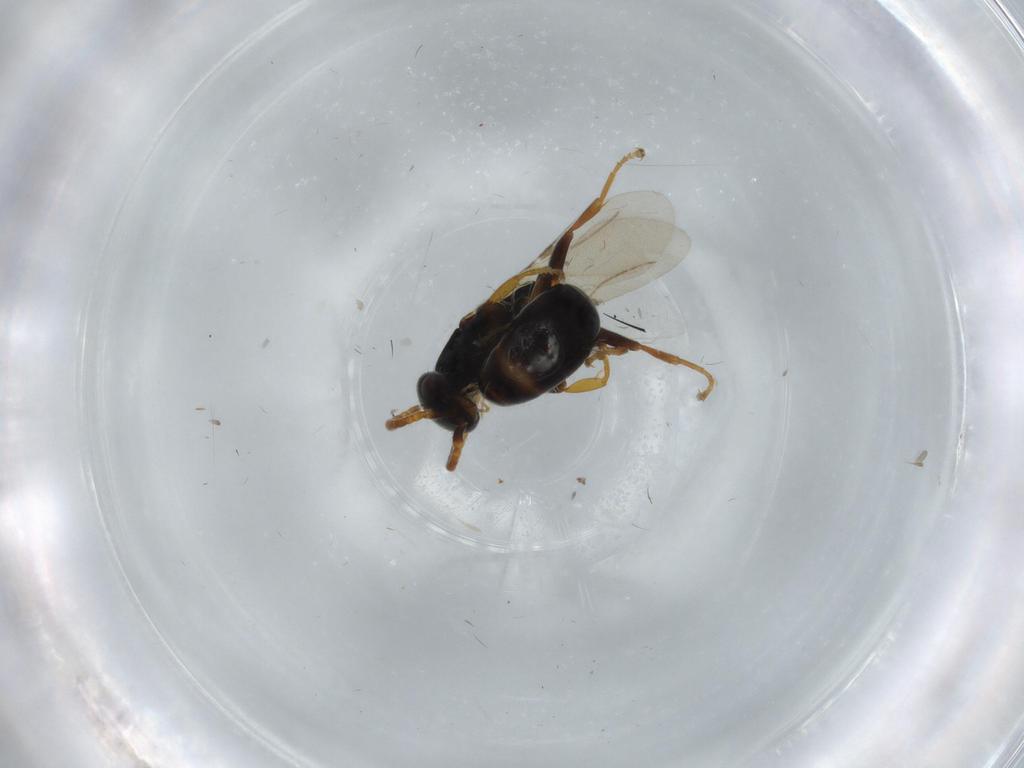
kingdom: Animalia
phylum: Arthropoda
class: Insecta
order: Hymenoptera
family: Bethylidae
